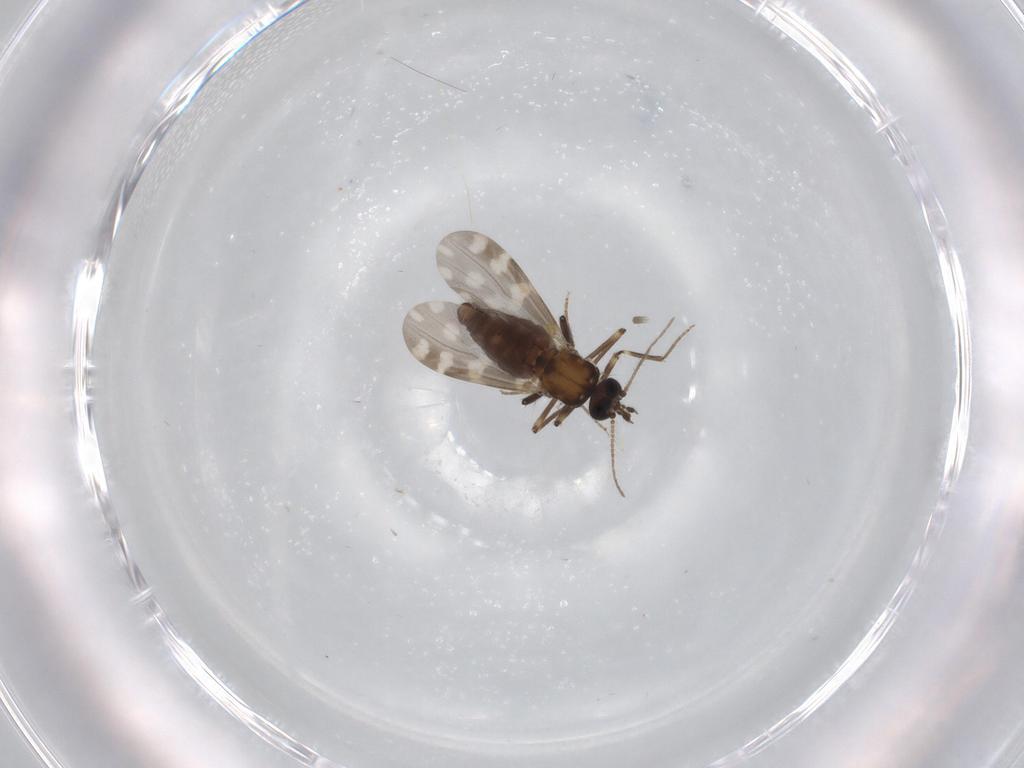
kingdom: Animalia
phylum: Arthropoda
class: Insecta
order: Diptera
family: Ceratopogonidae
